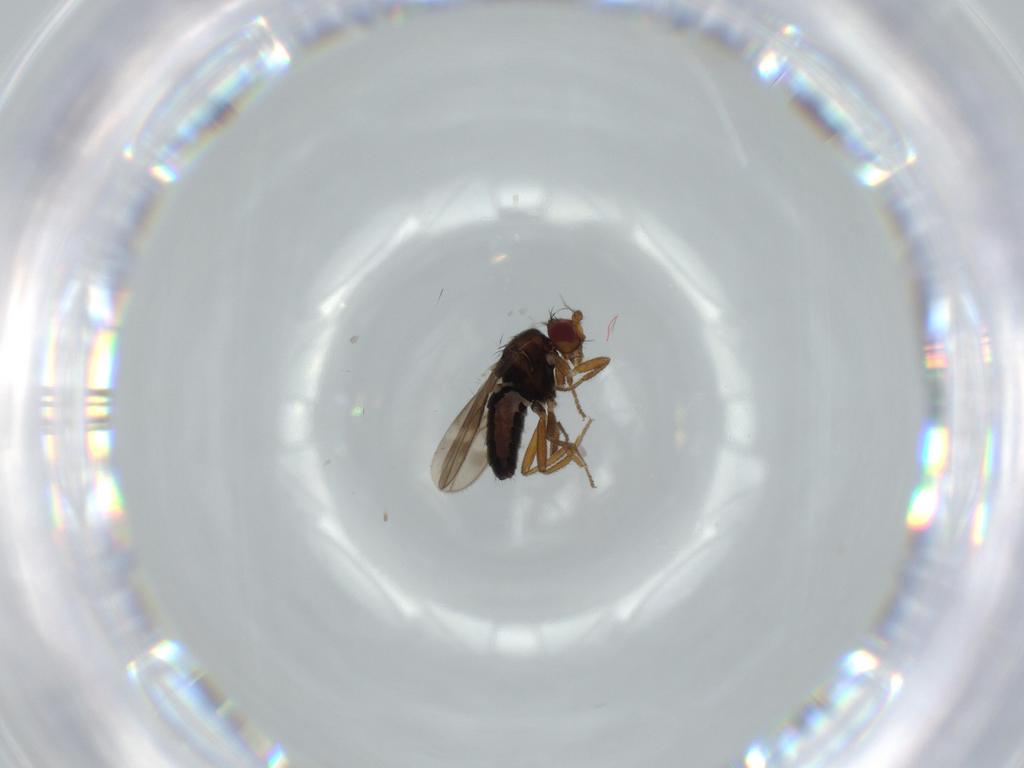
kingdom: Animalia
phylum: Arthropoda
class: Insecta
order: Diptera
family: Sphaeroceridae
